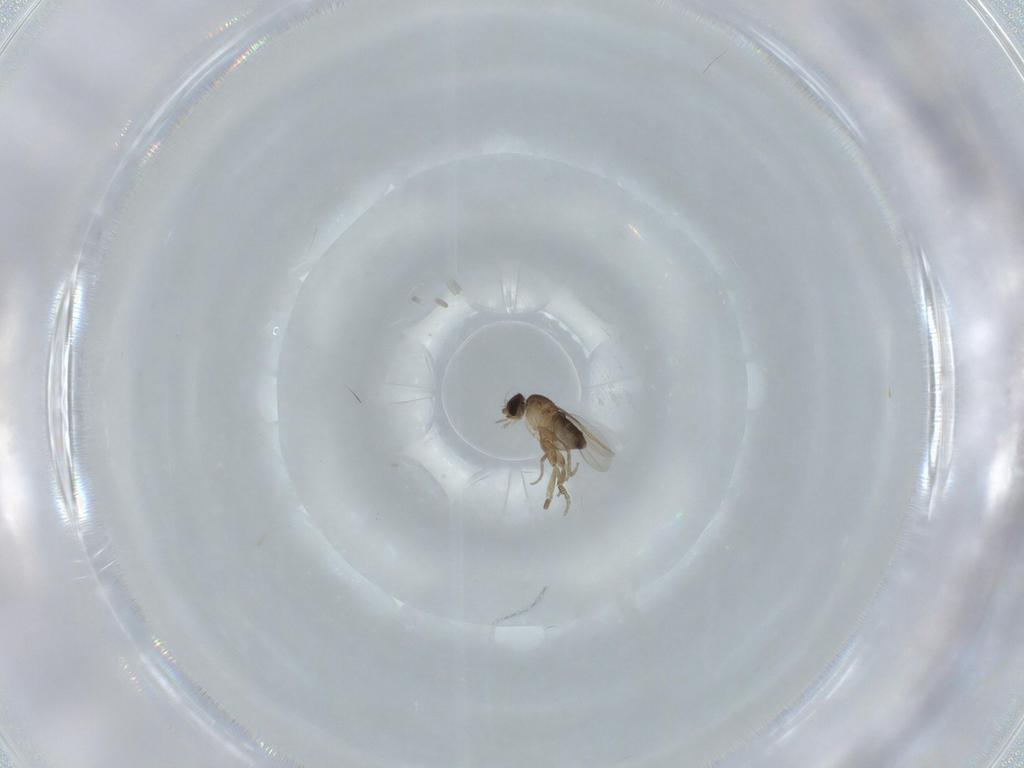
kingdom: Animalia
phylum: Arthropoda
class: Insecta
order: Diptera
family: Phoridae
